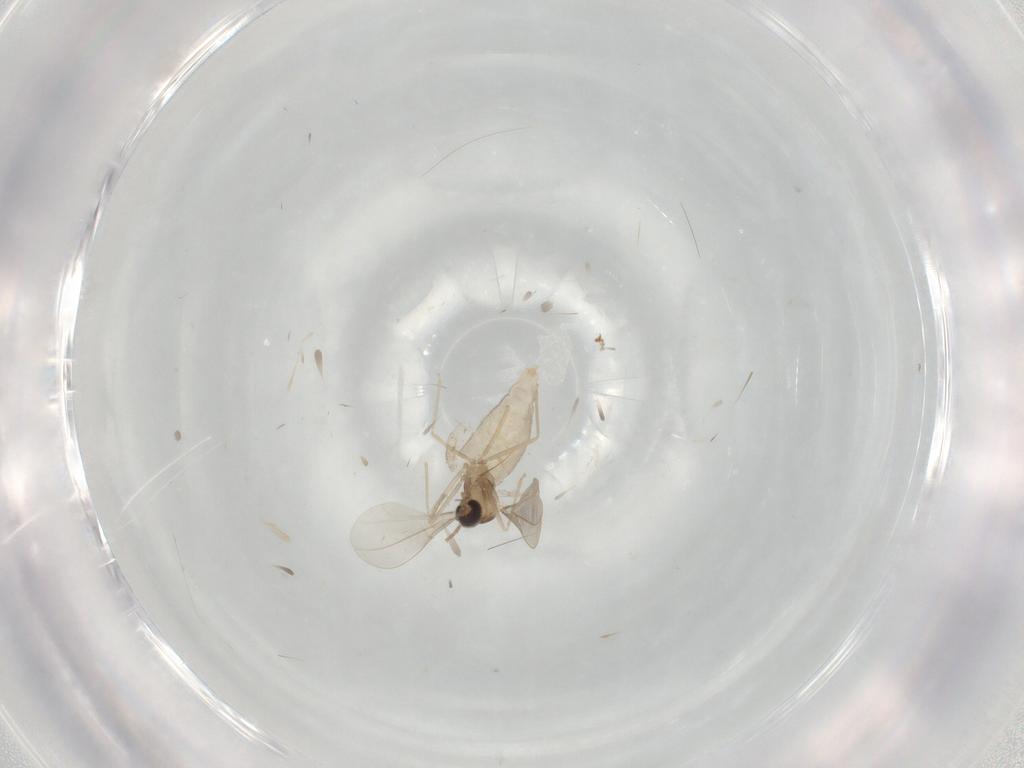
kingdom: Animalia
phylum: Arthropoda
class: Insecta
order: Diptera
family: Cecidomyiidae
